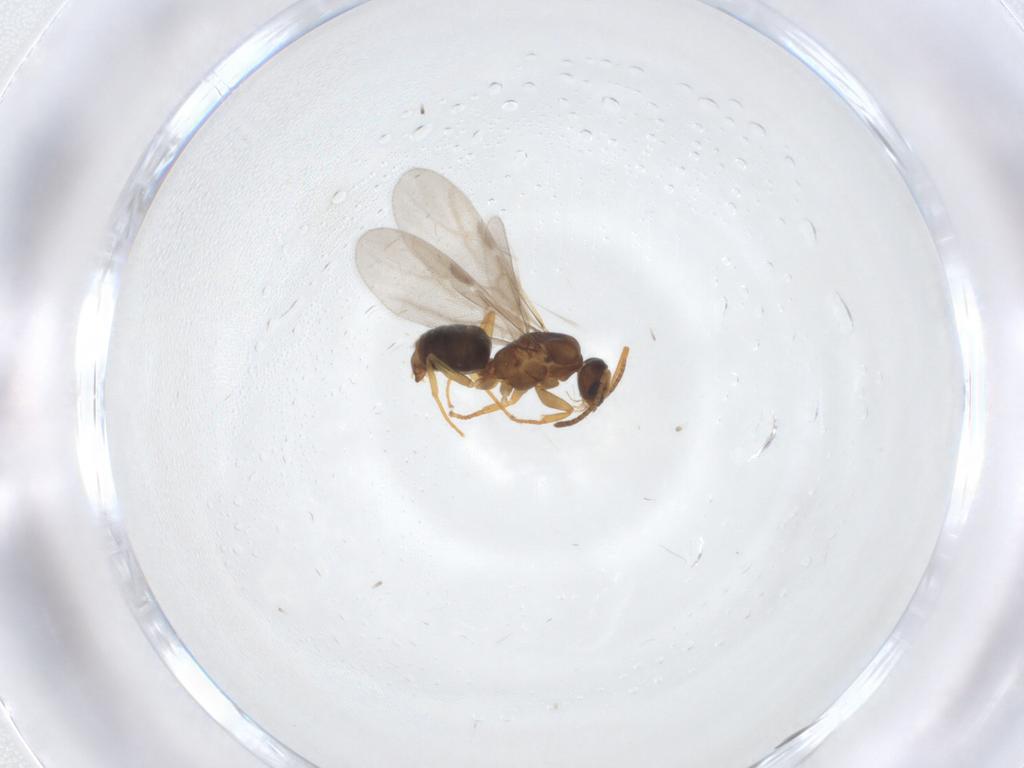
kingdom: Animalia
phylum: Arthropoda
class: Insecta
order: Hymenoptera
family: Formicidae
